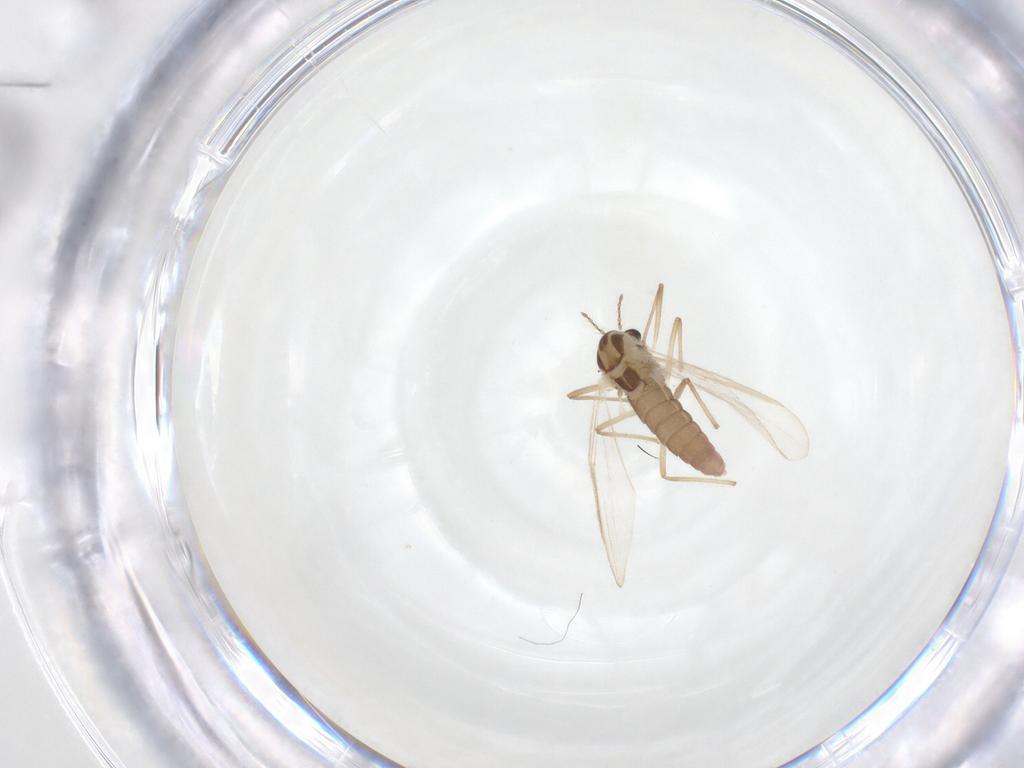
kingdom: Animalia
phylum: Arthropoda
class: Insecta
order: Diptera
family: Chironomidae
